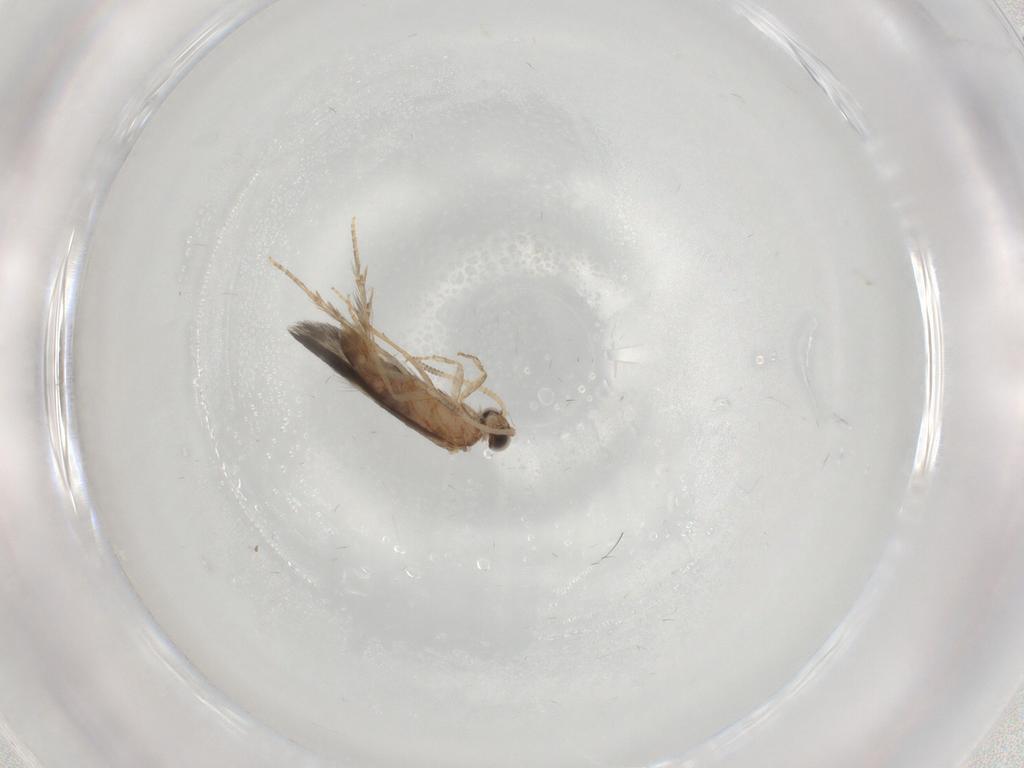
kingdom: Animalia
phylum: Arthropoda
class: Insecta
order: Trichoptera
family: Hydroptilidae
